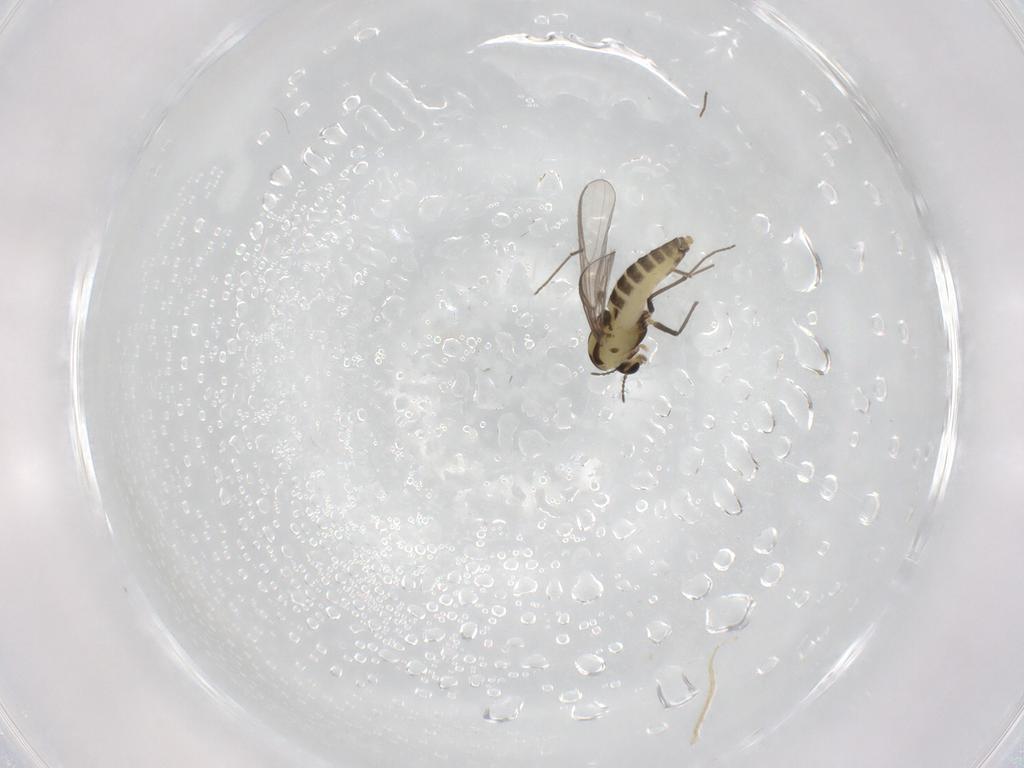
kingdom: Animalia
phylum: Arthropoda
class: Insecta
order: Diptera
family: Chironomidae
